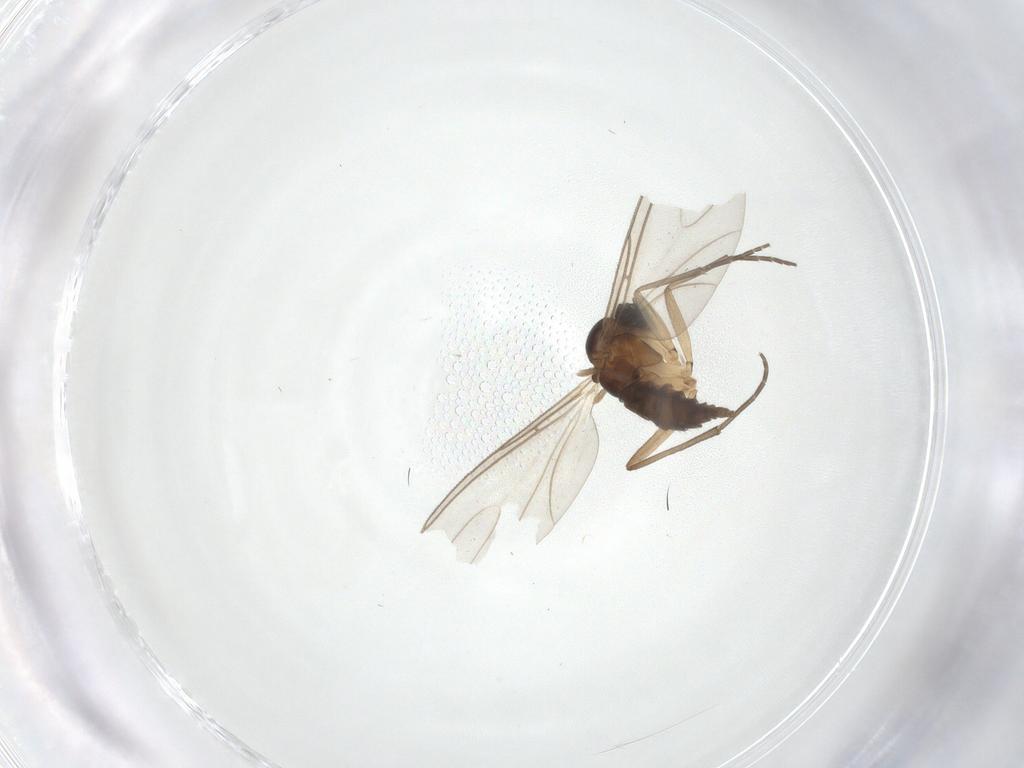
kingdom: Animalia
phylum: Arthropoda
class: Insecta
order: Diptera
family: Sciaridae
